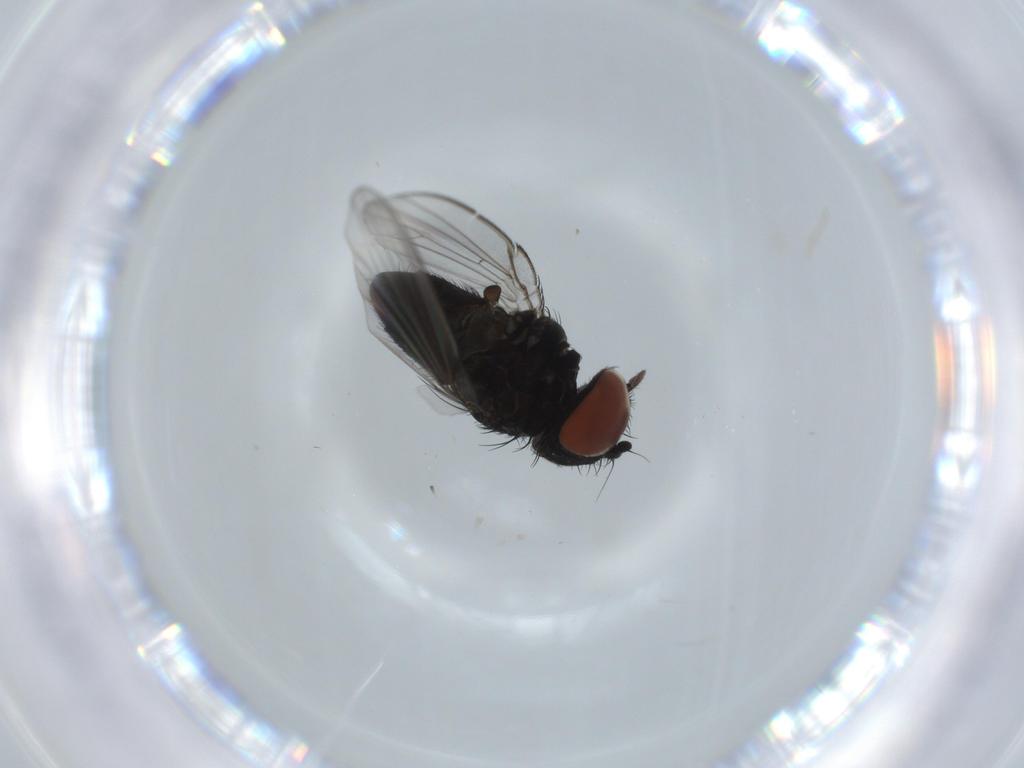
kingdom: Animalia
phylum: Arthropoda
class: Insecta
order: Diptera
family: Milichiidae
